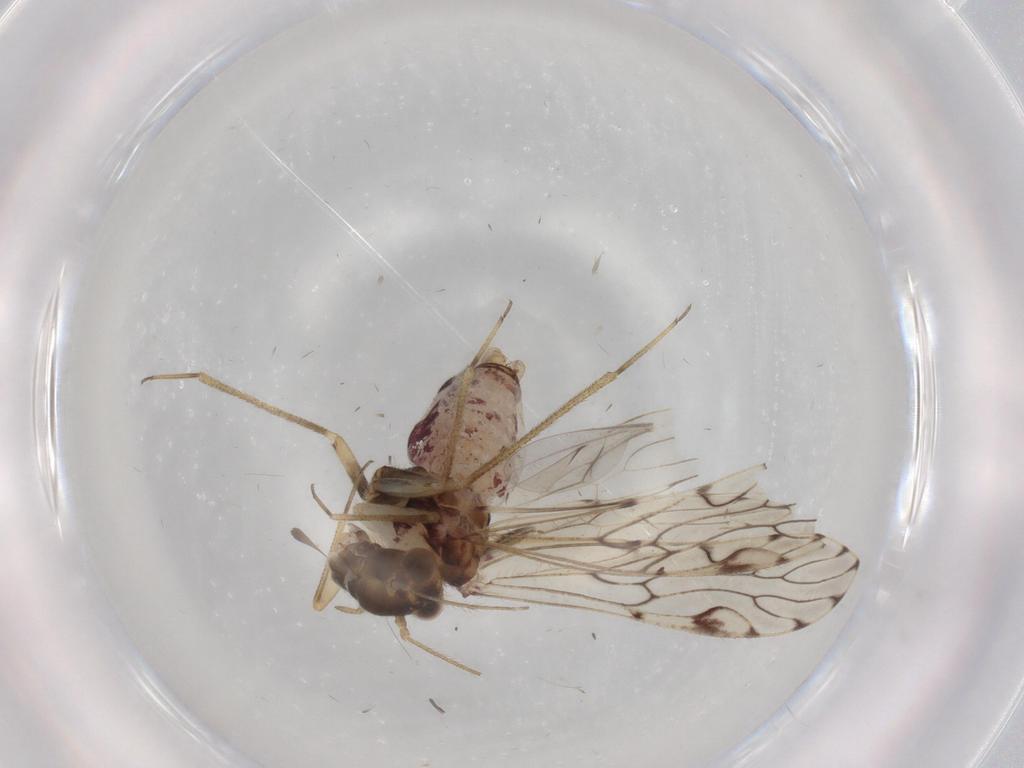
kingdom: Animalia
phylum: Arthropoda
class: Insecta
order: Psocodea
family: Epipsocidae
